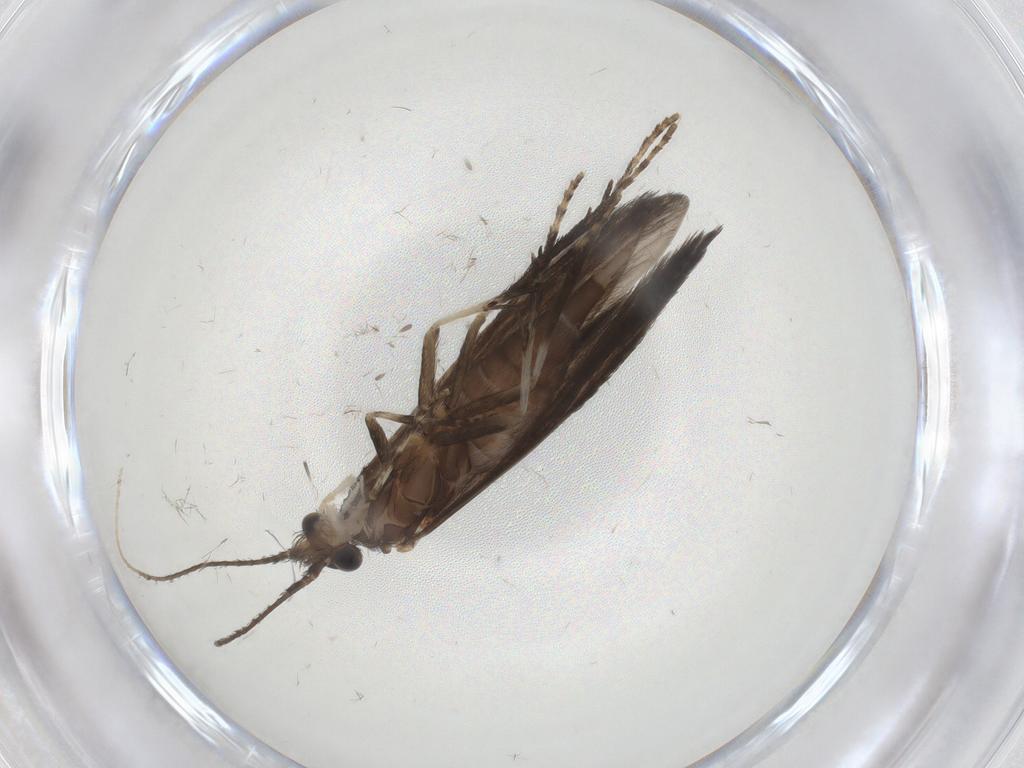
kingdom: Animalia
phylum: Arthropoda
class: Insecta
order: Trichoptera
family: Xiphocentronidae
